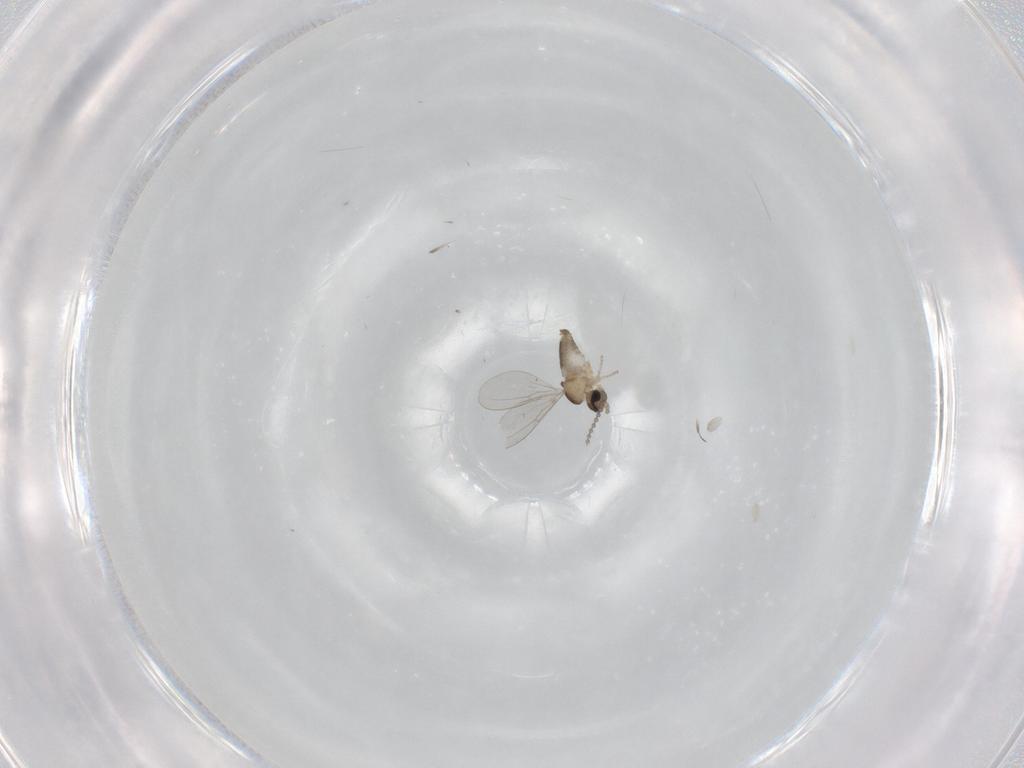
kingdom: Animalia
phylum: Arthropoda
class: Insecta
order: Diptera
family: Cecidomyiidae
